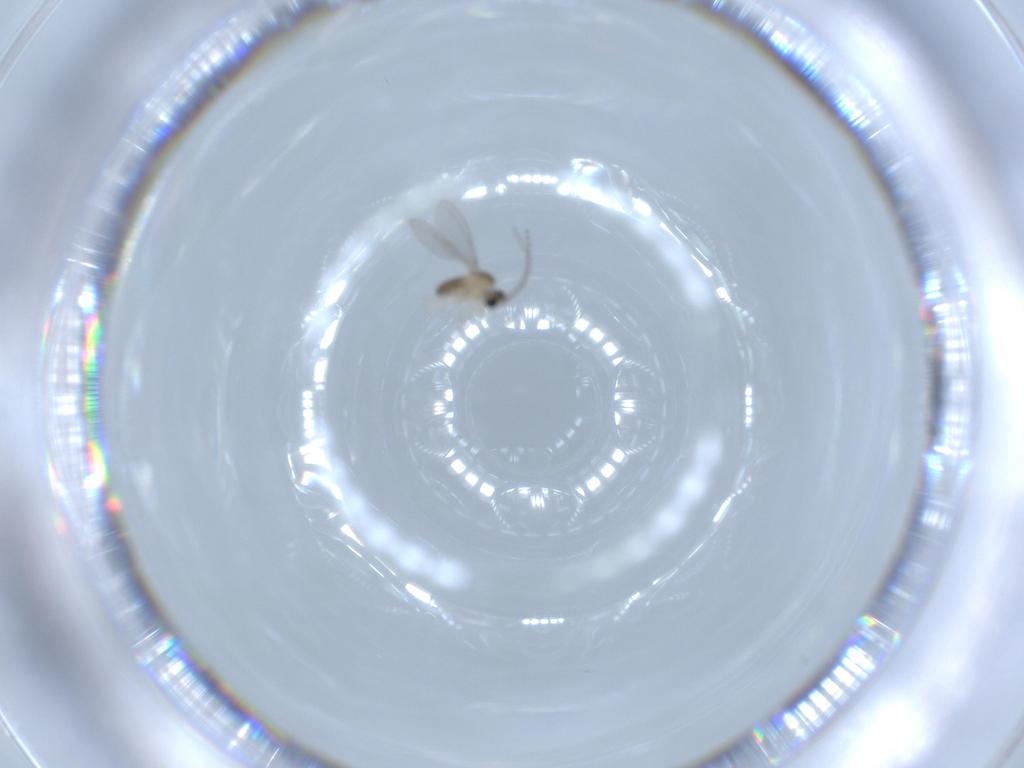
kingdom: Animalia
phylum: Arthropoda
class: Insecta
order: Diptera
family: Cecidomyiidae
